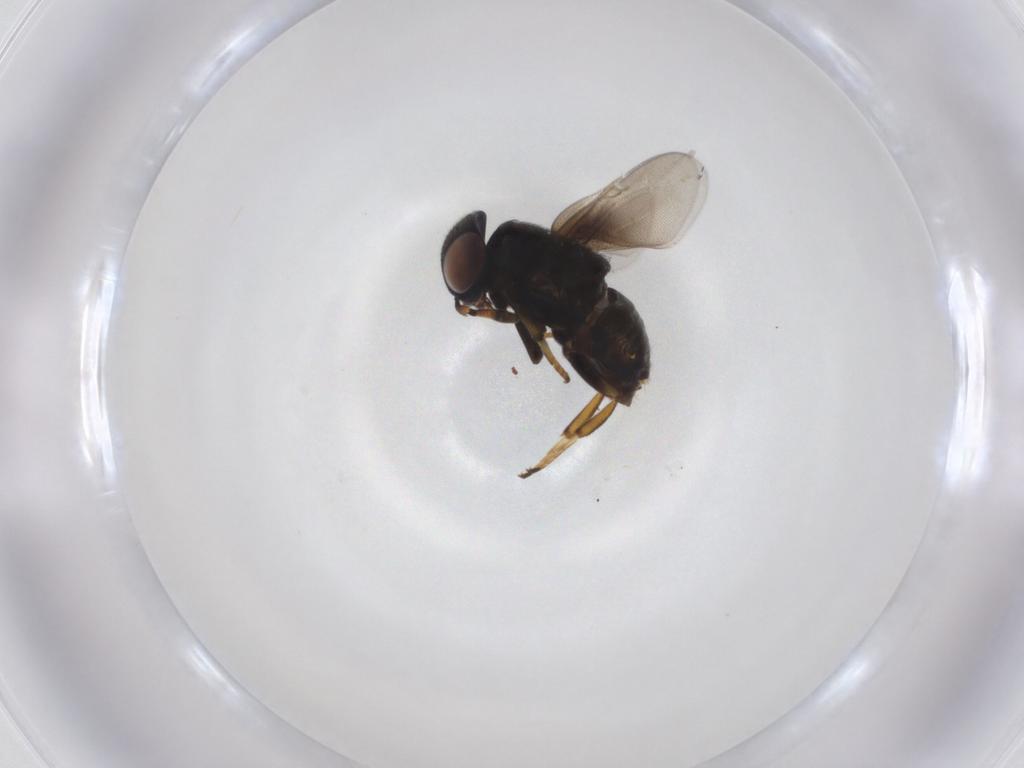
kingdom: Animalia
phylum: Arthropoda
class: Insecta
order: Hymenoptera
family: Encyrtidae
